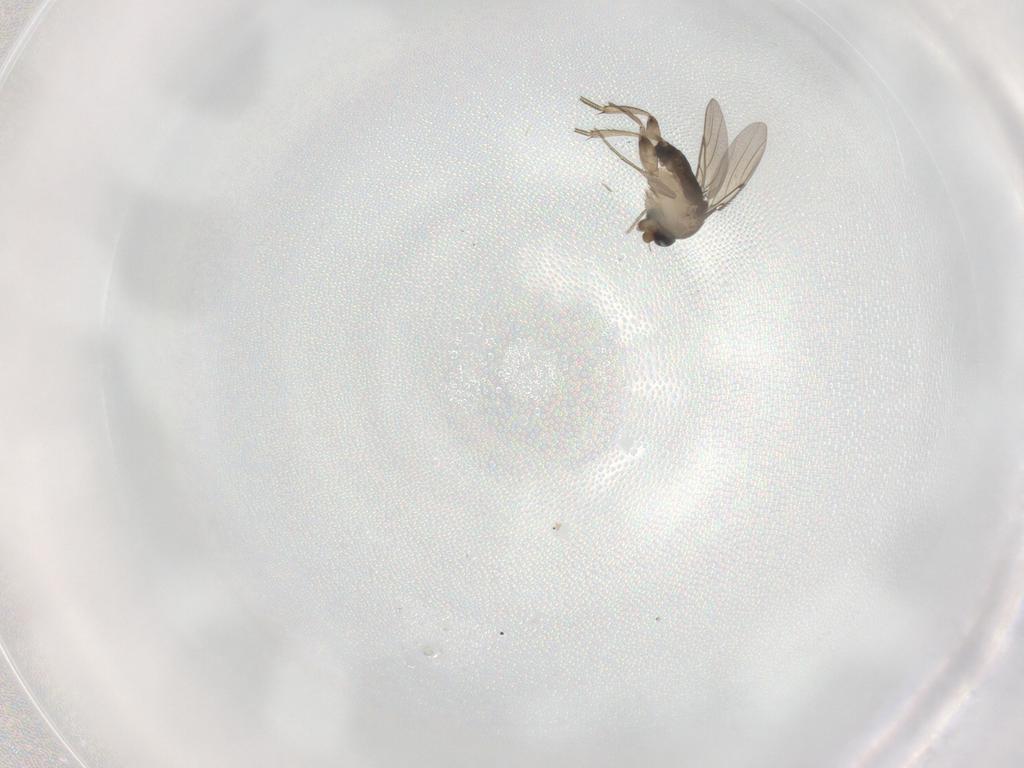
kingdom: Animalia
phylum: Arthropoda
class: Insecta
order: Diptera
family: Phoridae
